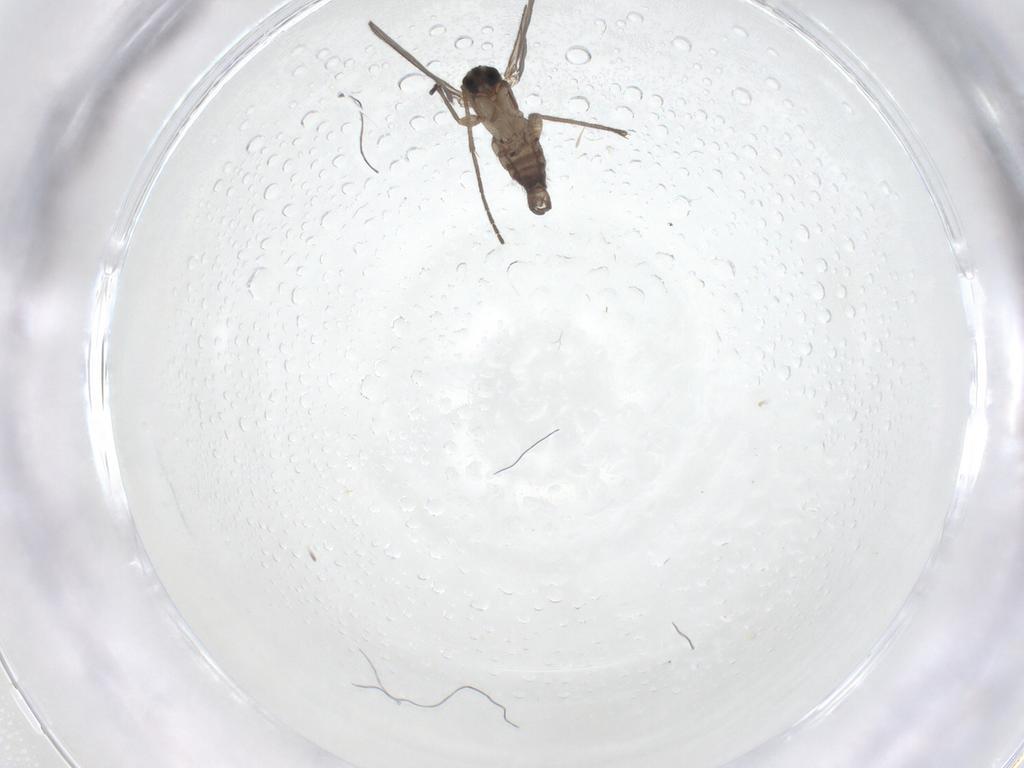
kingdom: Animalia
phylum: Arthropoda
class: Insecta
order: Diptera
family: Sciaridae
